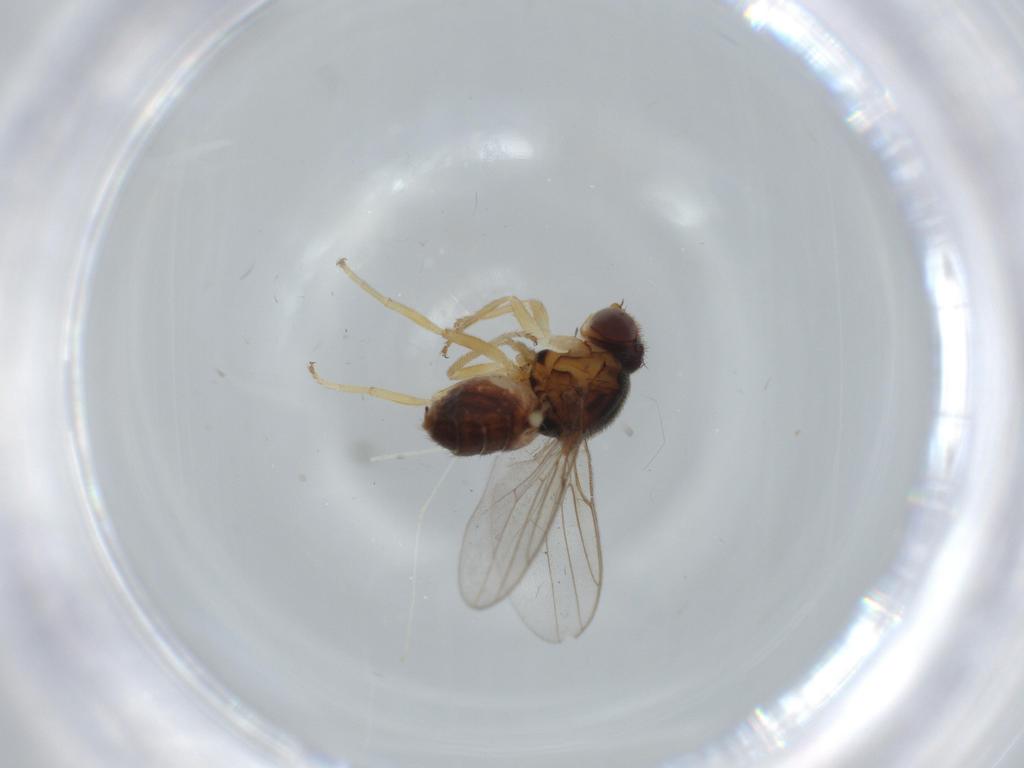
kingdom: Animalia
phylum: Arthropoda
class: Insecta
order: Diptera
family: Chloropidae
